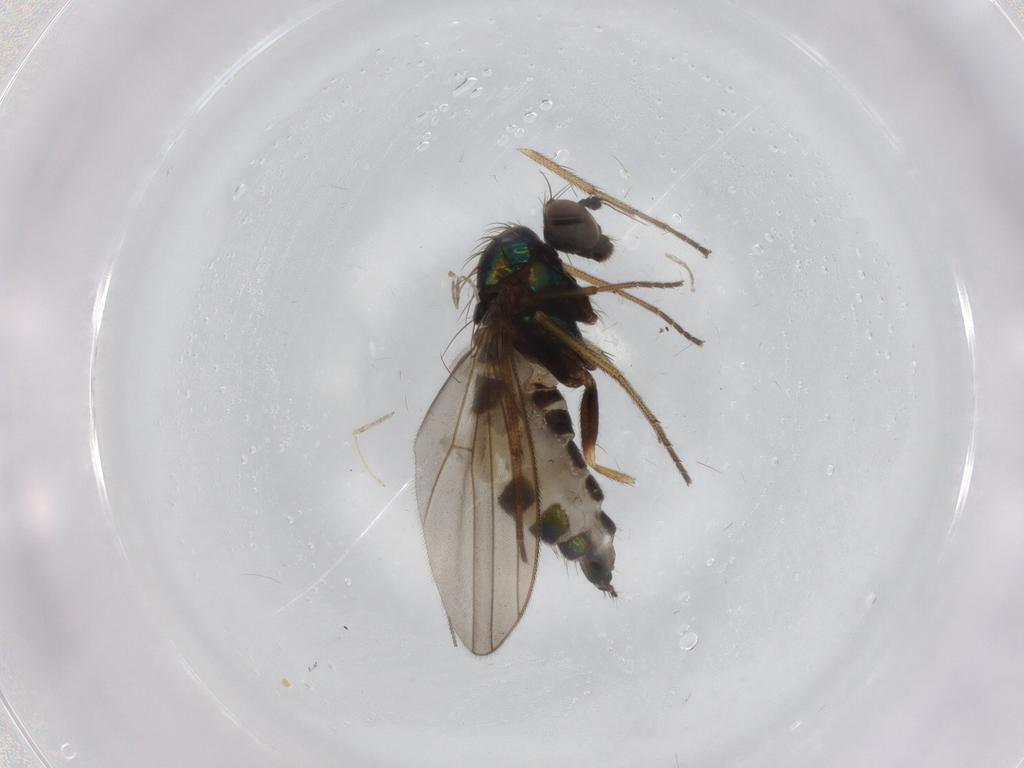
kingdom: Animalia
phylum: Arthropoda
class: Insecta
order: Diptera
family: Dolichopodidae
